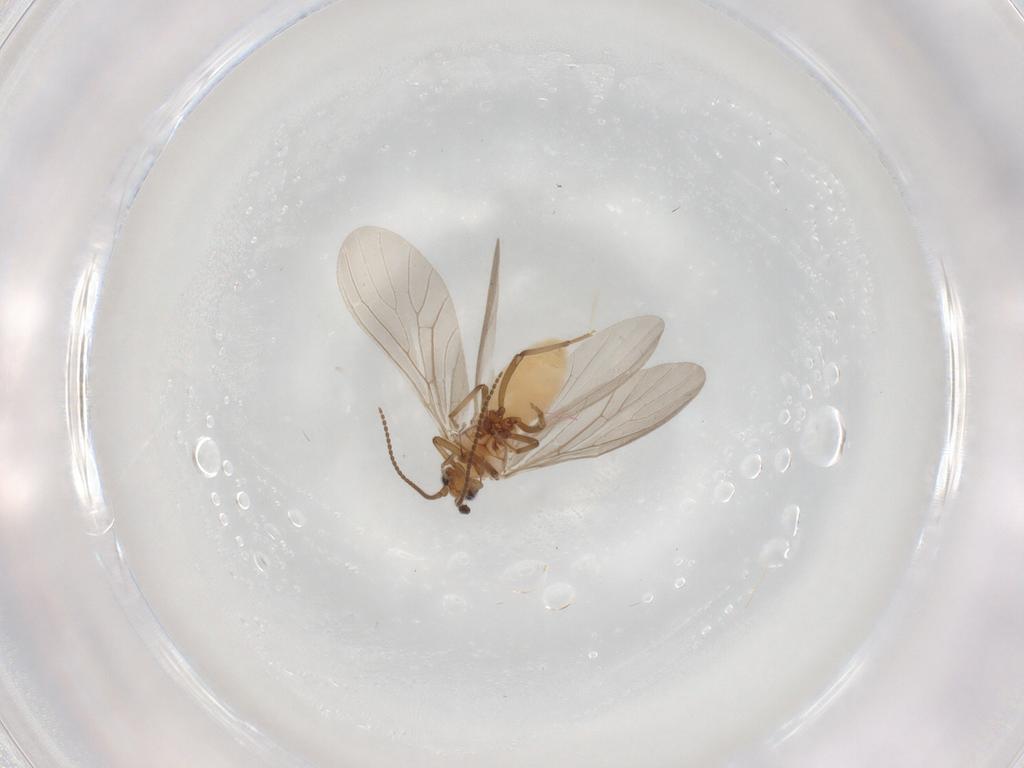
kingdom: Animalia
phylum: Arthropoda
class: Insecta
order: Neuroptera
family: Coniopterygidae
